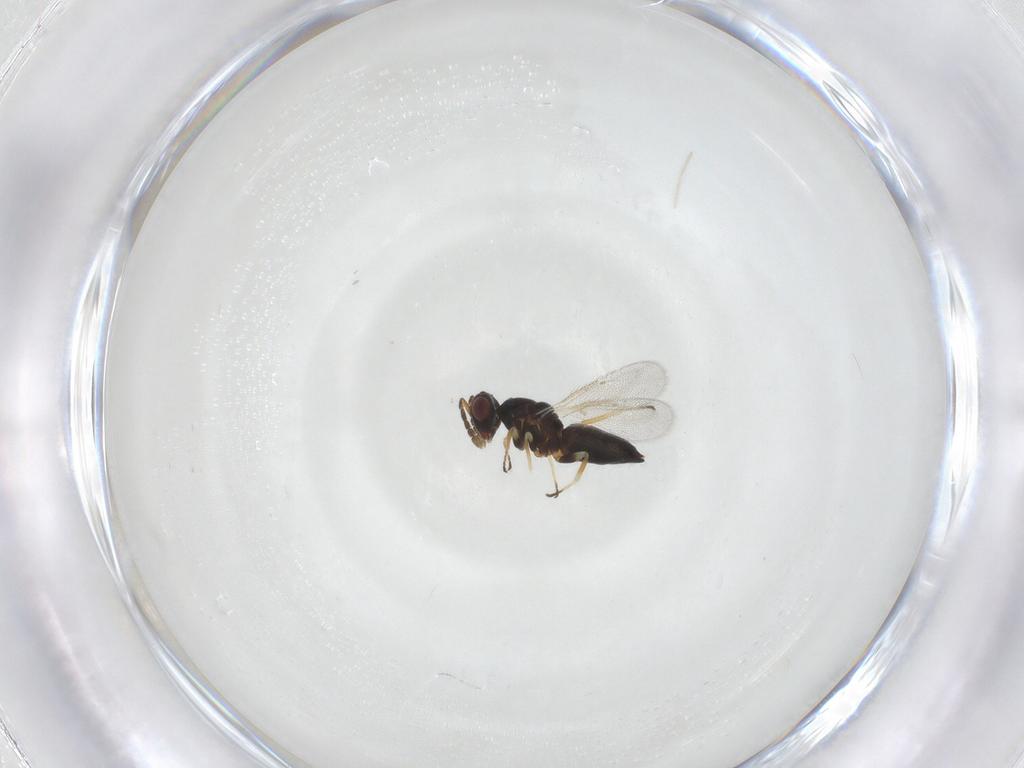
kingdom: Animalia
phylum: Arthropoda
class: Insecta
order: Hymenoptera
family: Eulophidae
